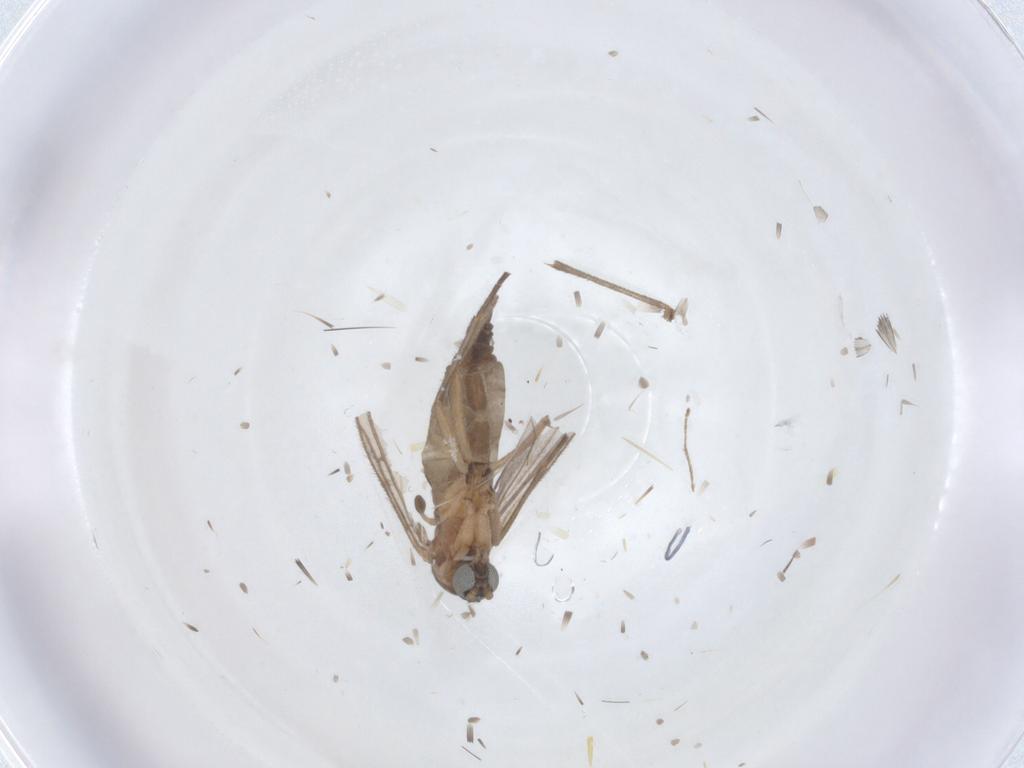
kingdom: Animalia
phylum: Arthropoda
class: Insecta
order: Diptera
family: Sciaridae
